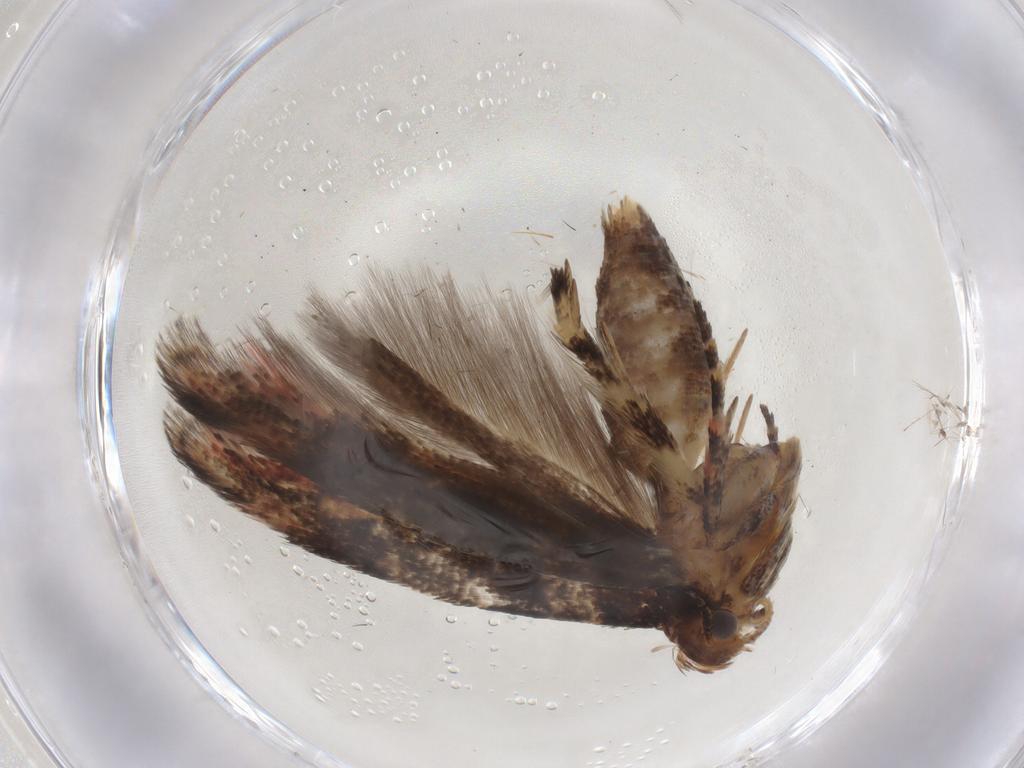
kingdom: Animalia
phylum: Arthropoda
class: Insecta
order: Lepidoptera
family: Gelechiidae
